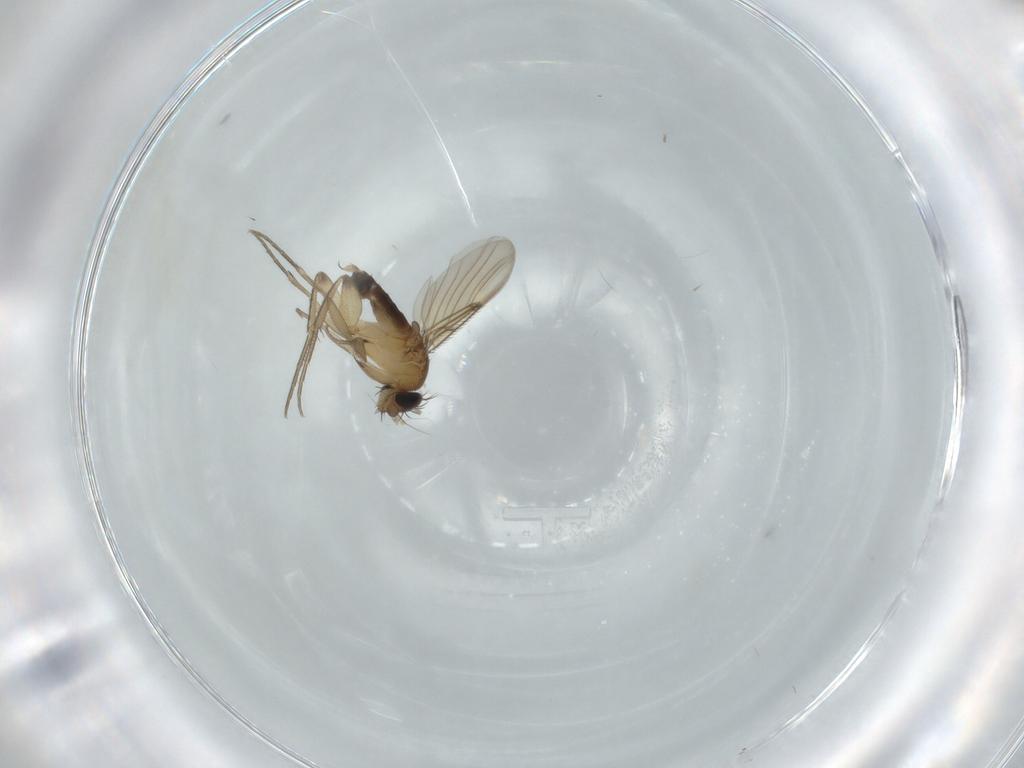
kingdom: Animalia
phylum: Arthropoda
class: Insecta
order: Diptera
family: Phoridae
